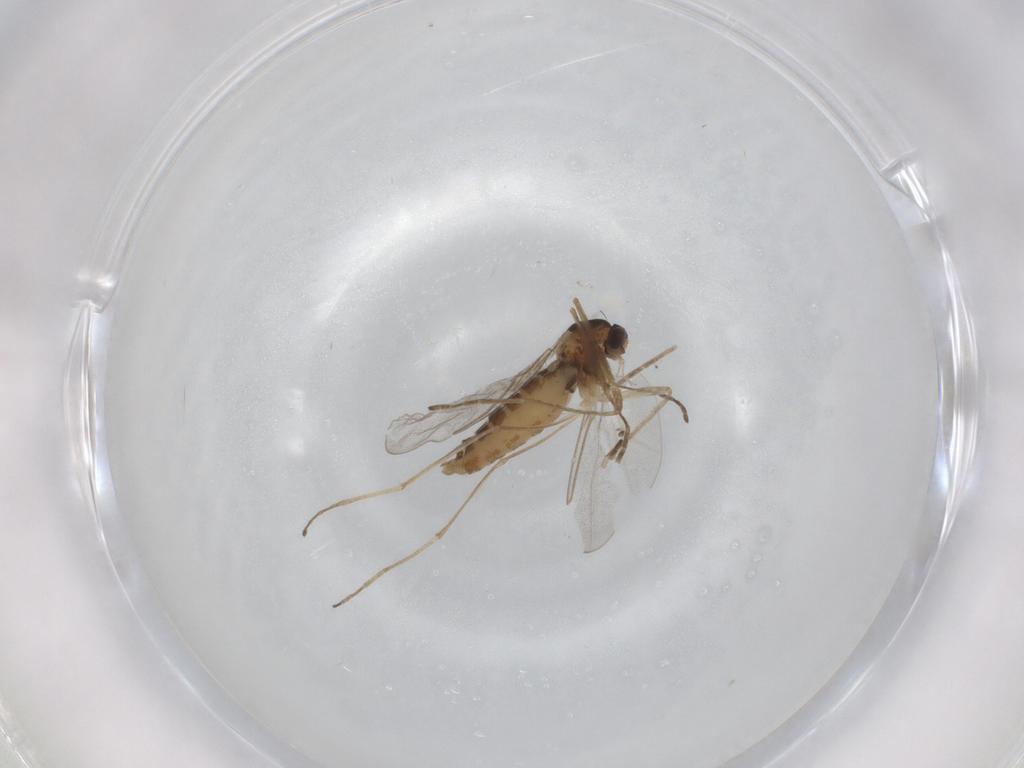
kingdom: Animalia
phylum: Arthropoda
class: Insecta
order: Diptera
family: Cecidomyiidae
